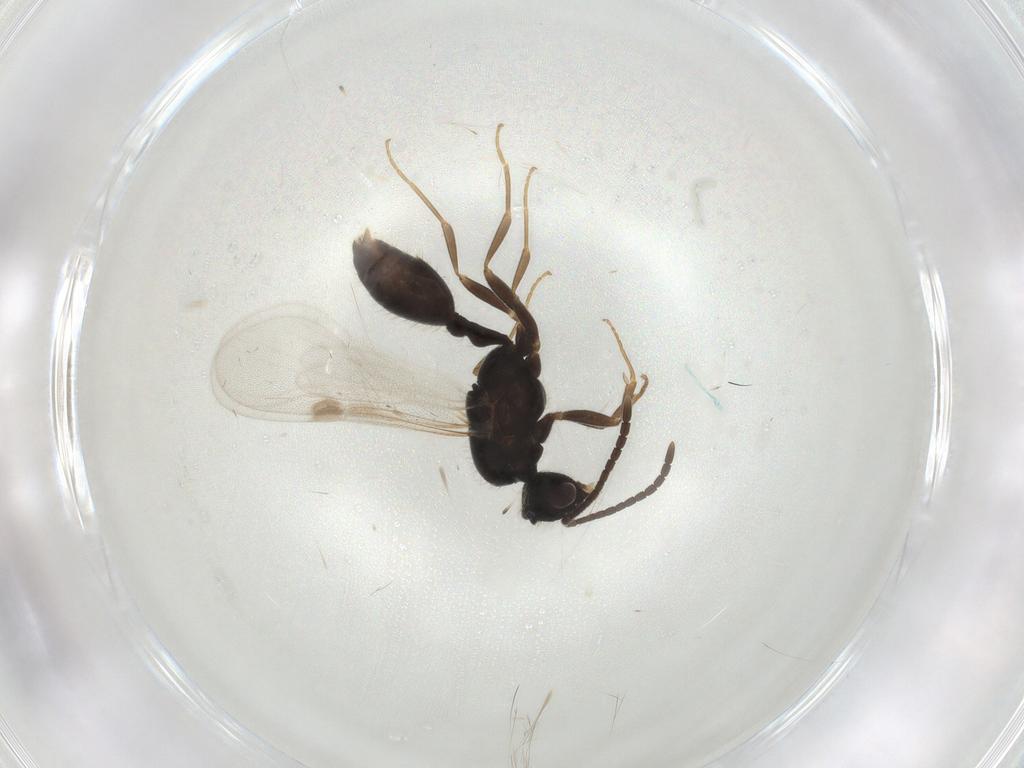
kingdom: Animalia
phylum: Arthropoda
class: Insecta
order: Hymenoptera
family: Formicidae
